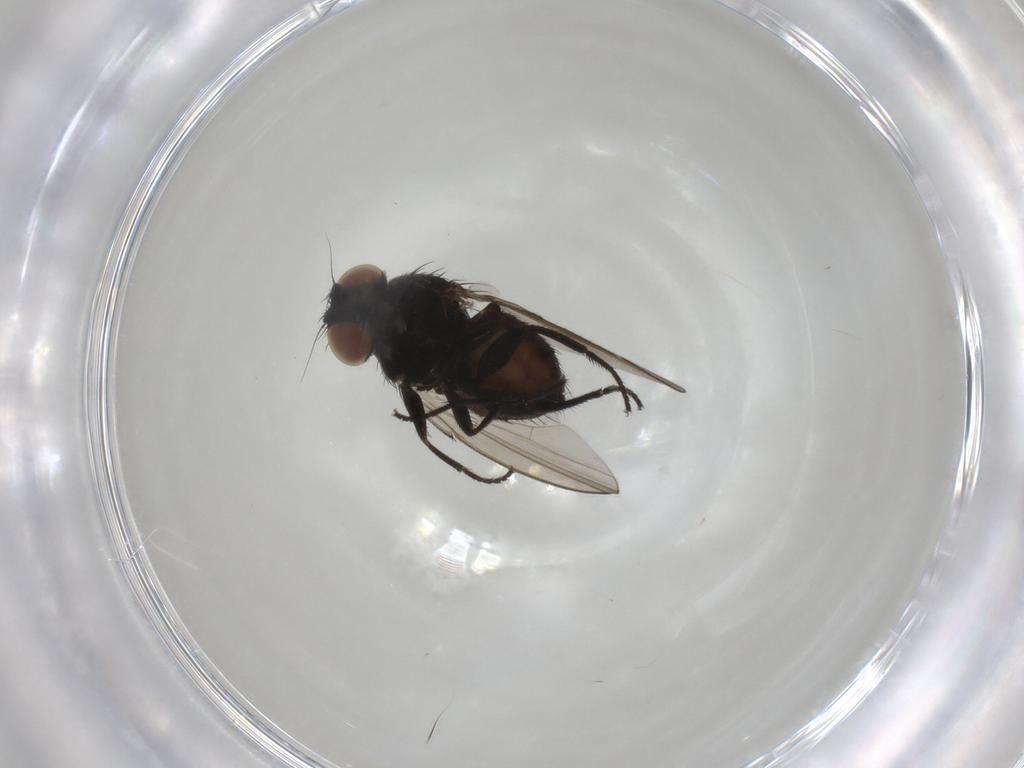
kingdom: Animalia
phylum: Arthropoda
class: Insecta
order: Diptera
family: Milichiidae
